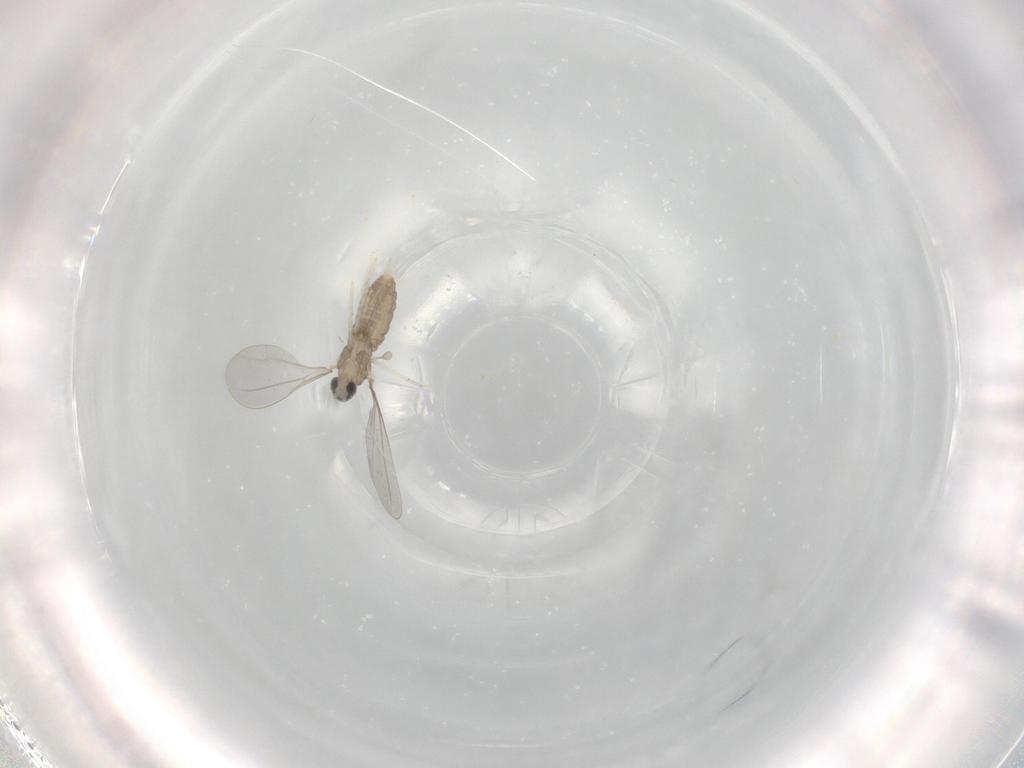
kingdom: Animalia
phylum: Arthropoda
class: Insecta
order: Diptera
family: Cecidomyiidae
